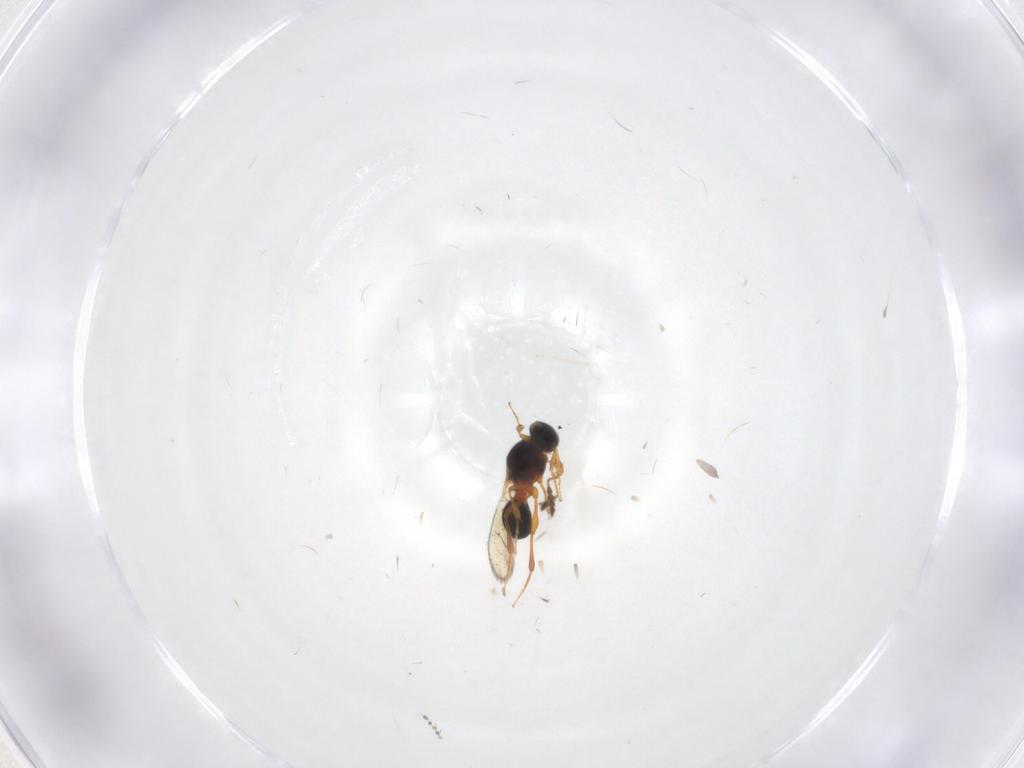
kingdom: Animalia
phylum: Arthropoda
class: Insecta
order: Hymenoptera
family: Platygastridae
